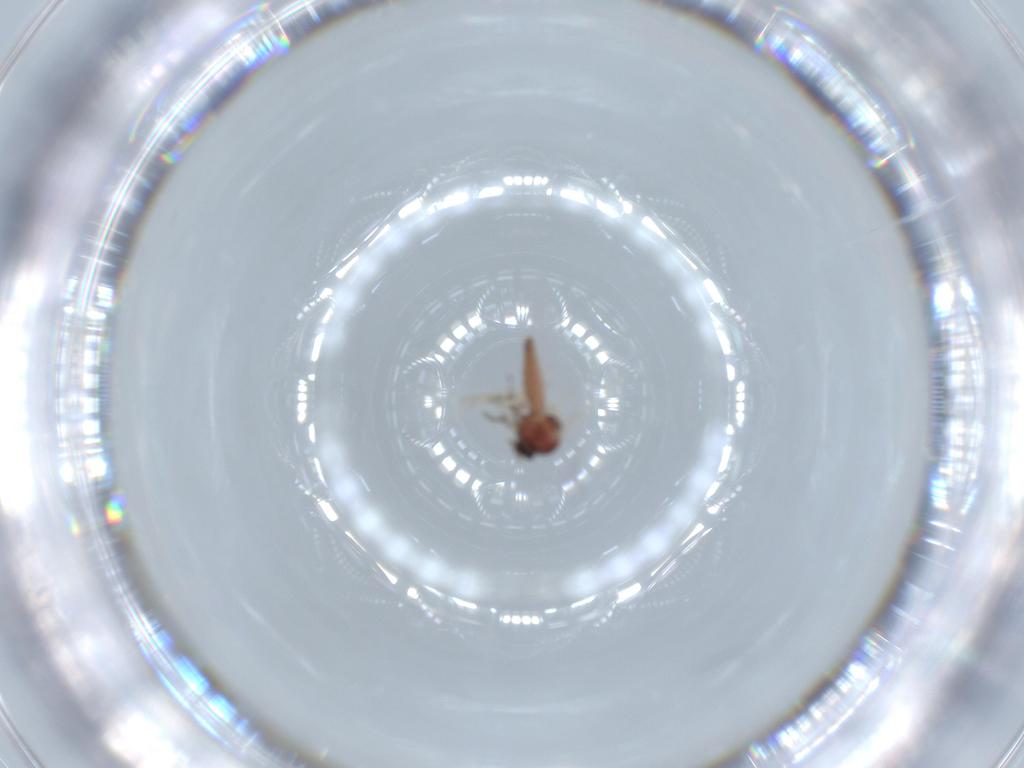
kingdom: Animalia
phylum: Arthropoda
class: Insecta
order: Diptera
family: Ceratopogonidae
